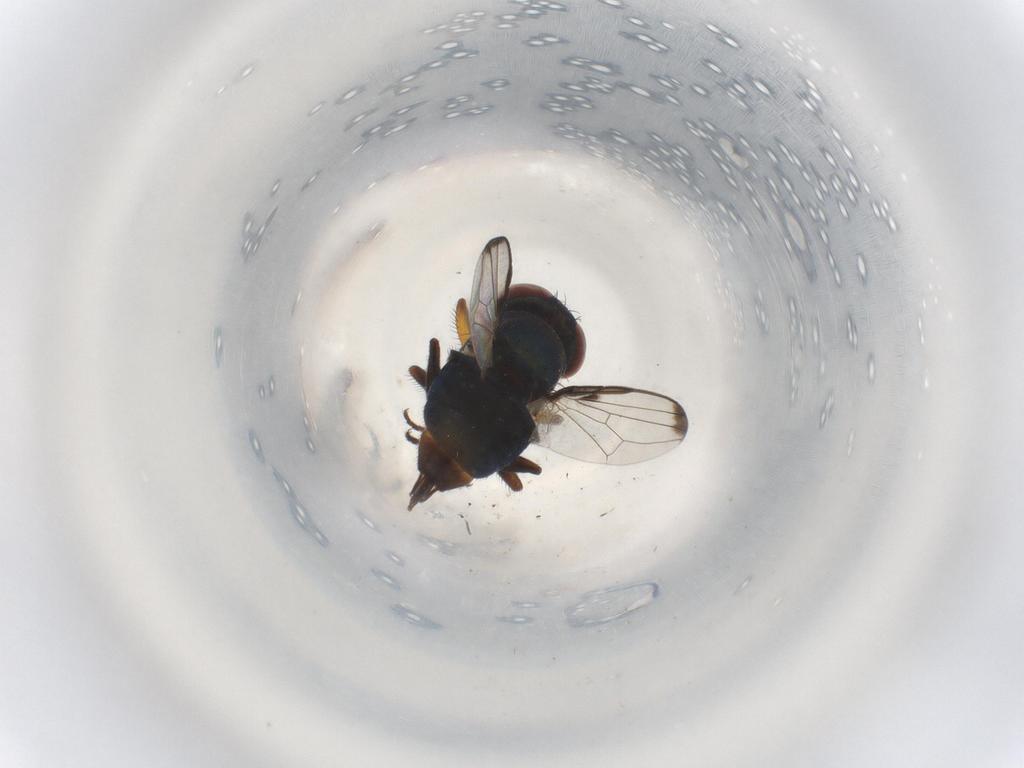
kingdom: Animalia
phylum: Arthropoda
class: Insecta
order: Diptera
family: Ulidiidae
